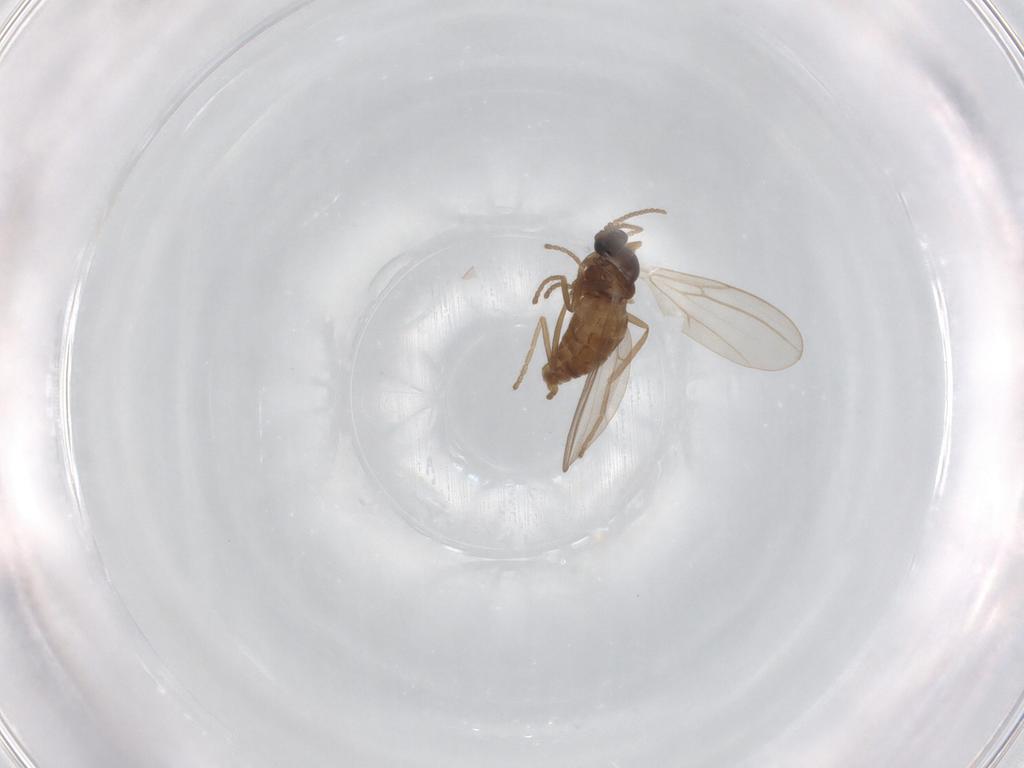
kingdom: Animalia
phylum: Arthropoda
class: Insecta
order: Diptera
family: Cecidomyiidae
